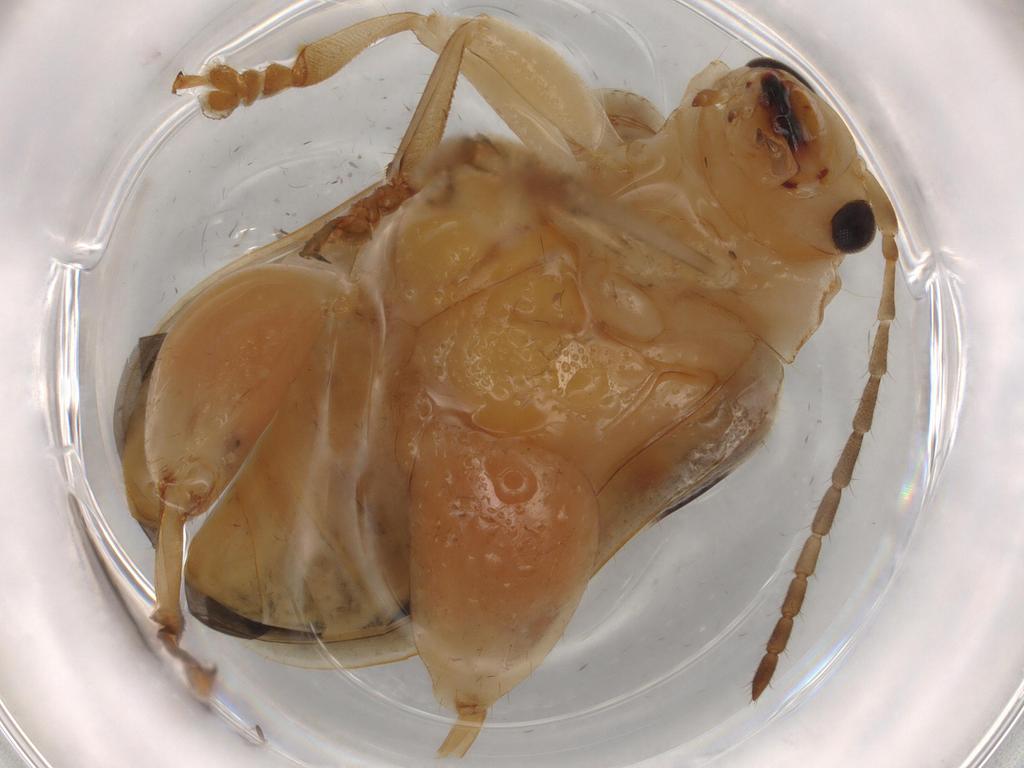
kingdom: Animalia
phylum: Arthropoda
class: Insecta
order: Coleoptera
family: Chrysomelidae
